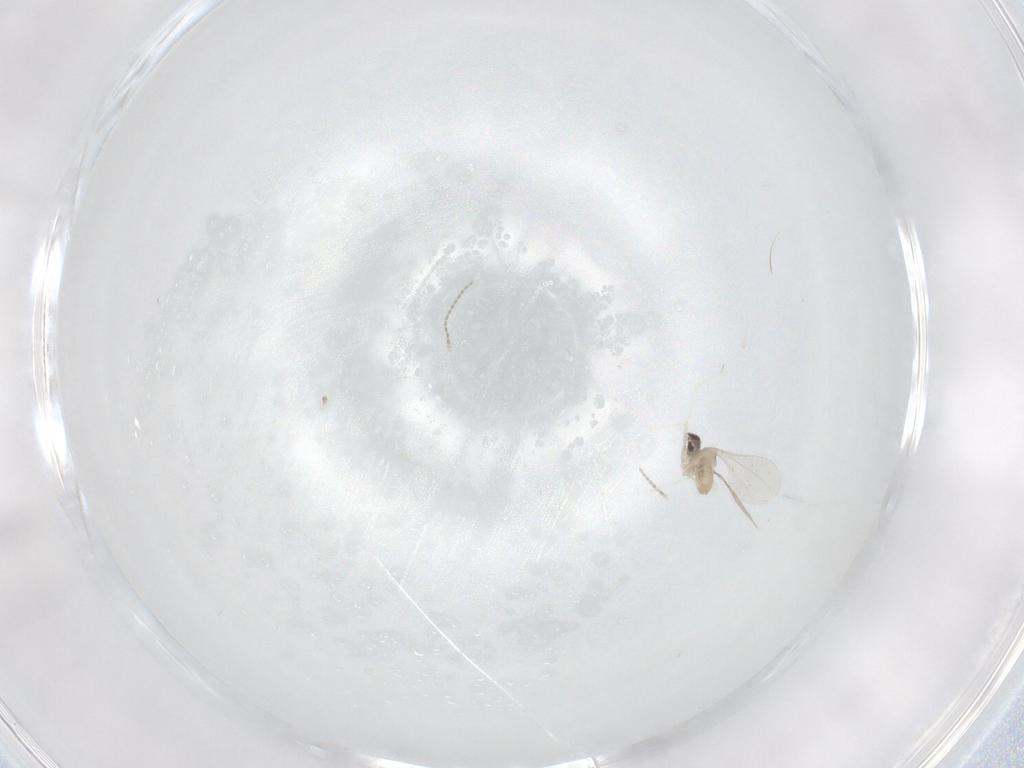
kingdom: Animalia
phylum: Arthropoda
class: Insecta
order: Diptera
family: Cecidomyiidae
